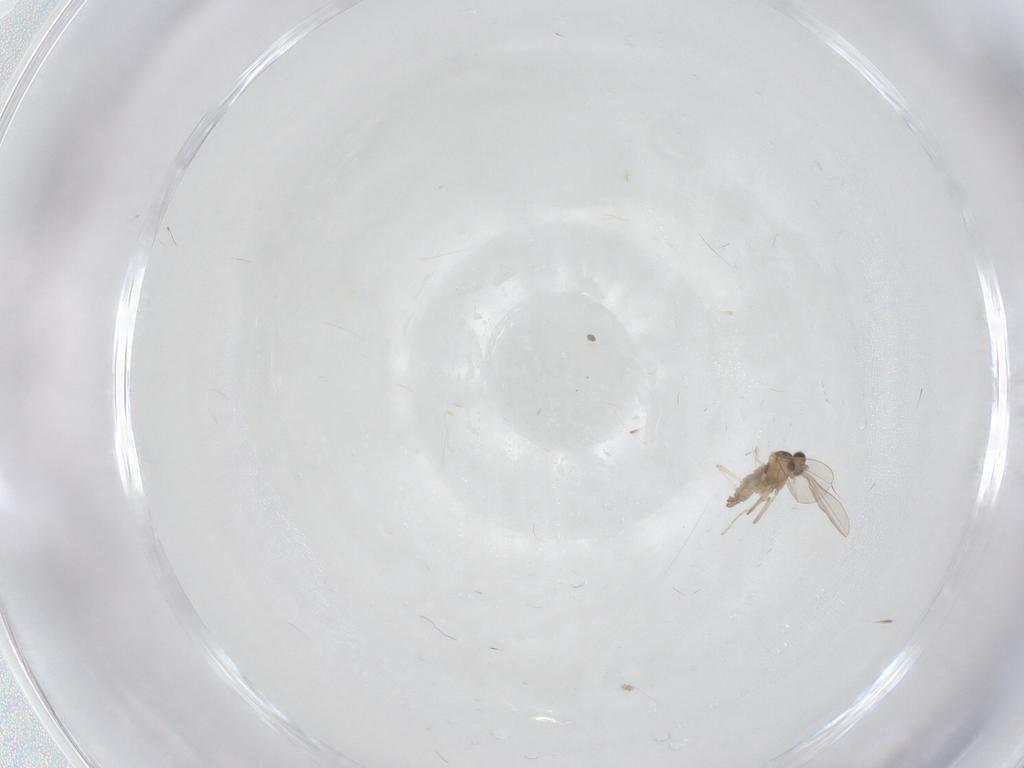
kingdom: Animalia
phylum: Arthropoda
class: Insecta
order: Diptera
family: Cecidomyiidae
